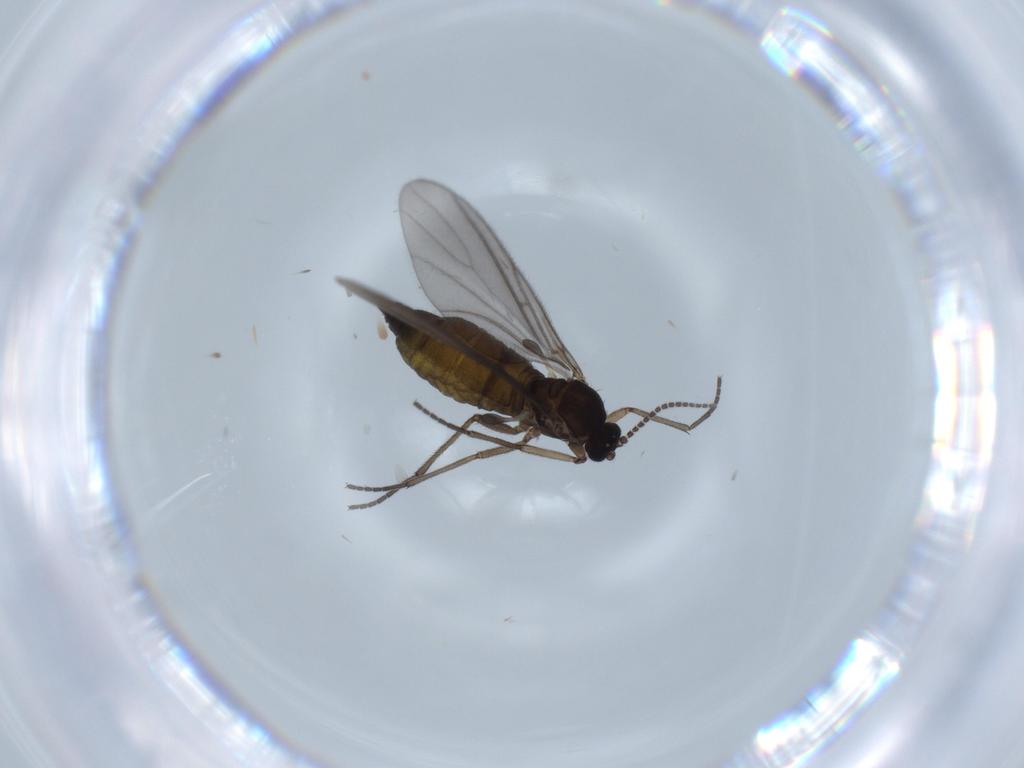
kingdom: Animalia
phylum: Arthropoda
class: Insecta
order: Diptera
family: Sciaridae
